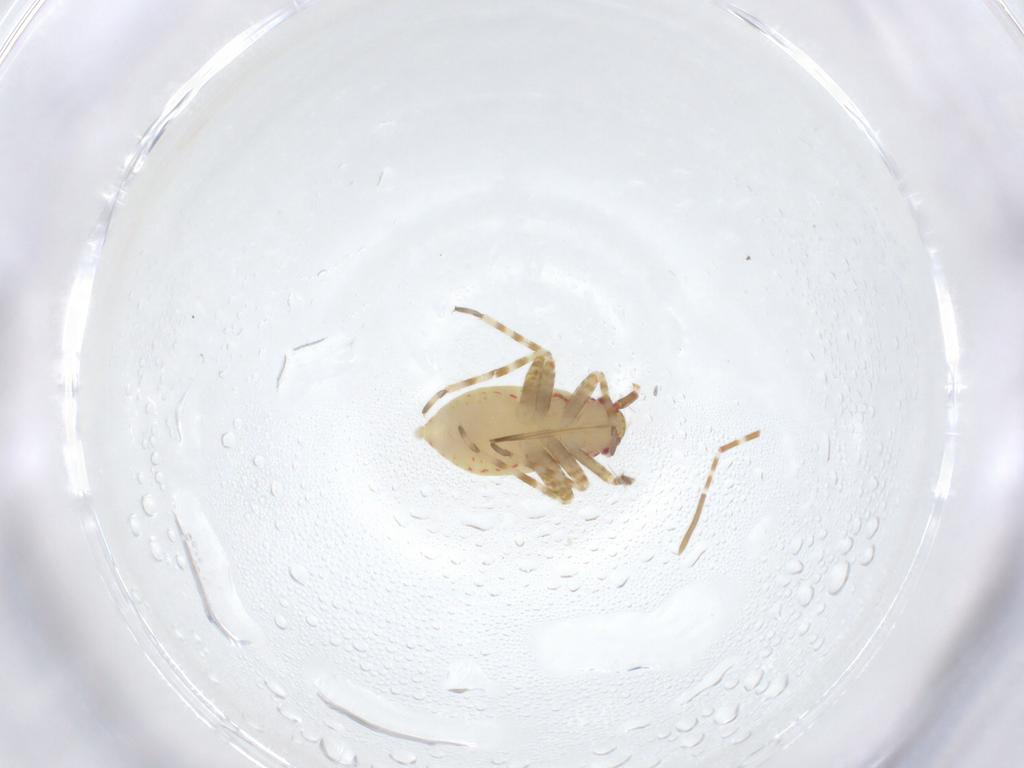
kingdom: Animalia
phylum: Arthropoda
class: Insecta
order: Hemiptera
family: Miridae
